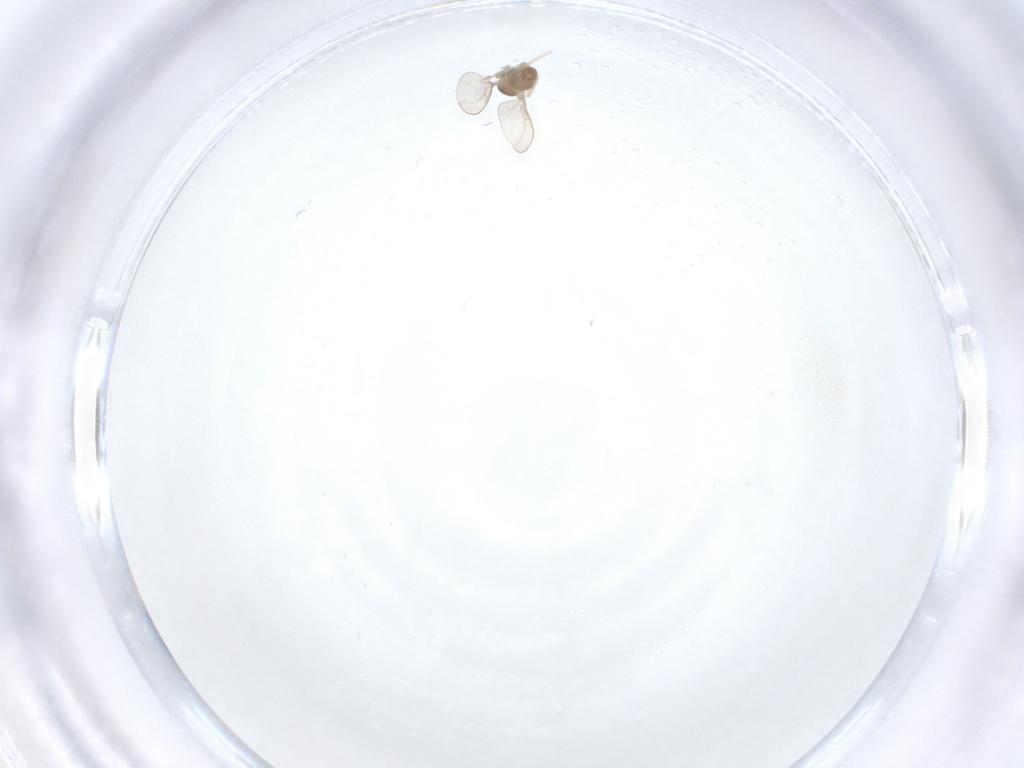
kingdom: Animalia
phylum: Arthropoda
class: Insecta
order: Diptera
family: Cecidomyiidae
